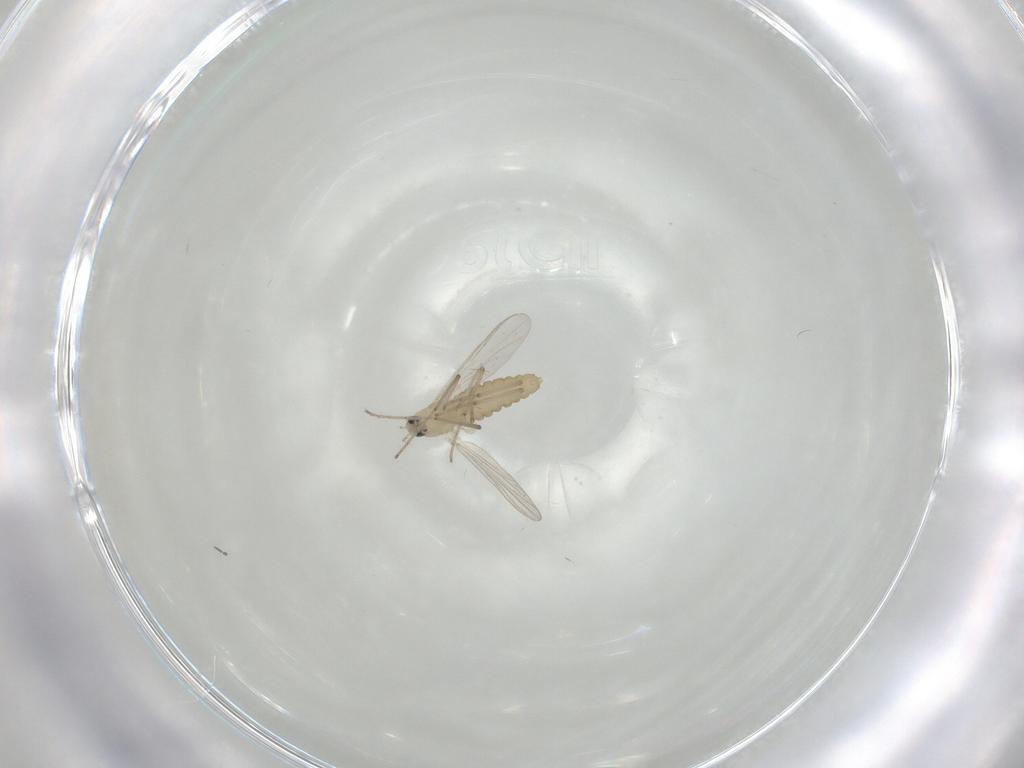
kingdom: Animalia
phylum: Arthropoda
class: Insecta
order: Diptera
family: Chironomidae
